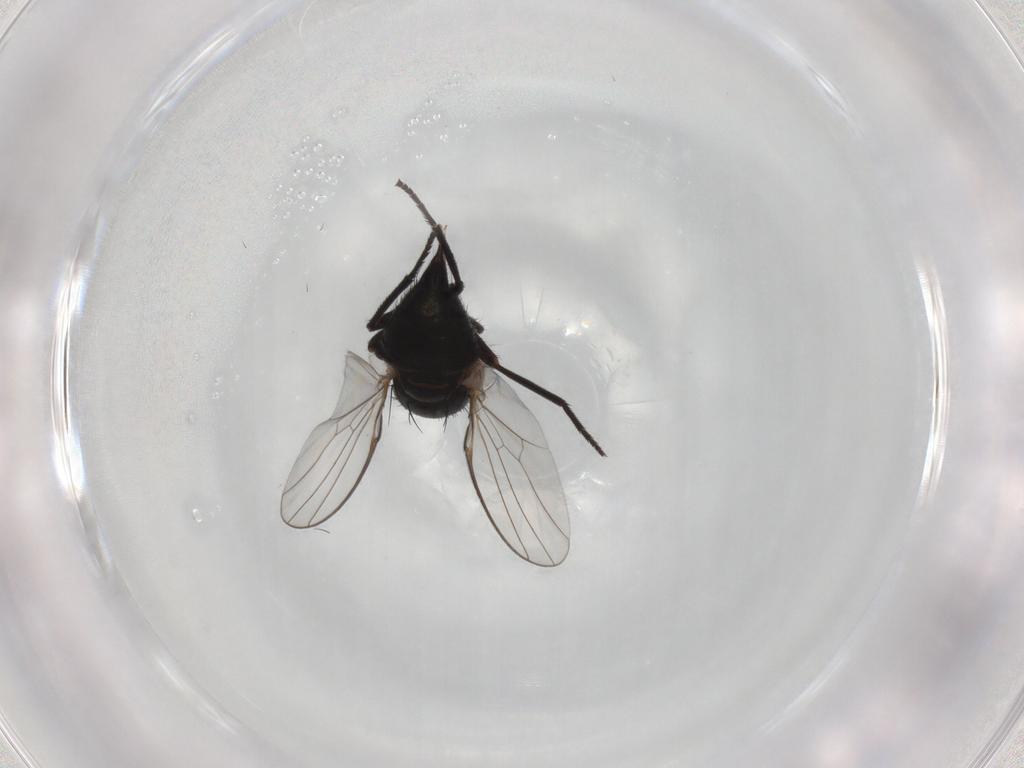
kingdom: Animalia
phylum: Arthropoda
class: Insecta
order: Diptera
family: Agromyzidae
